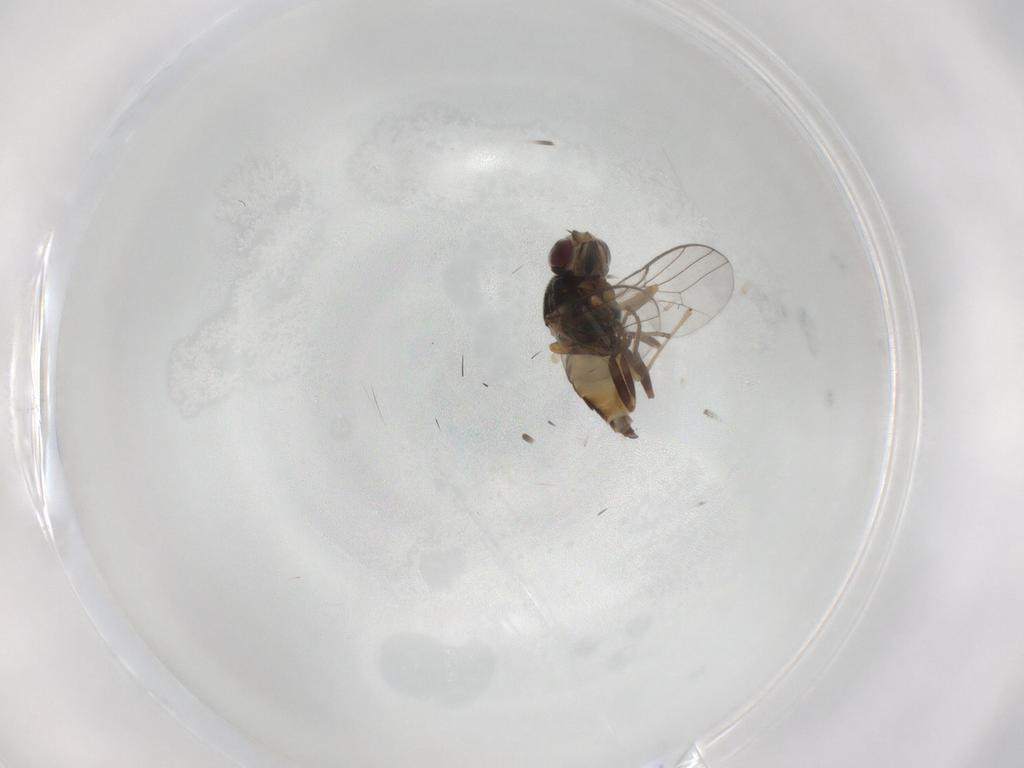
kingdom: Animalia
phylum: Arthropoda
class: Insecta
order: Diptera
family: Chloropidae
